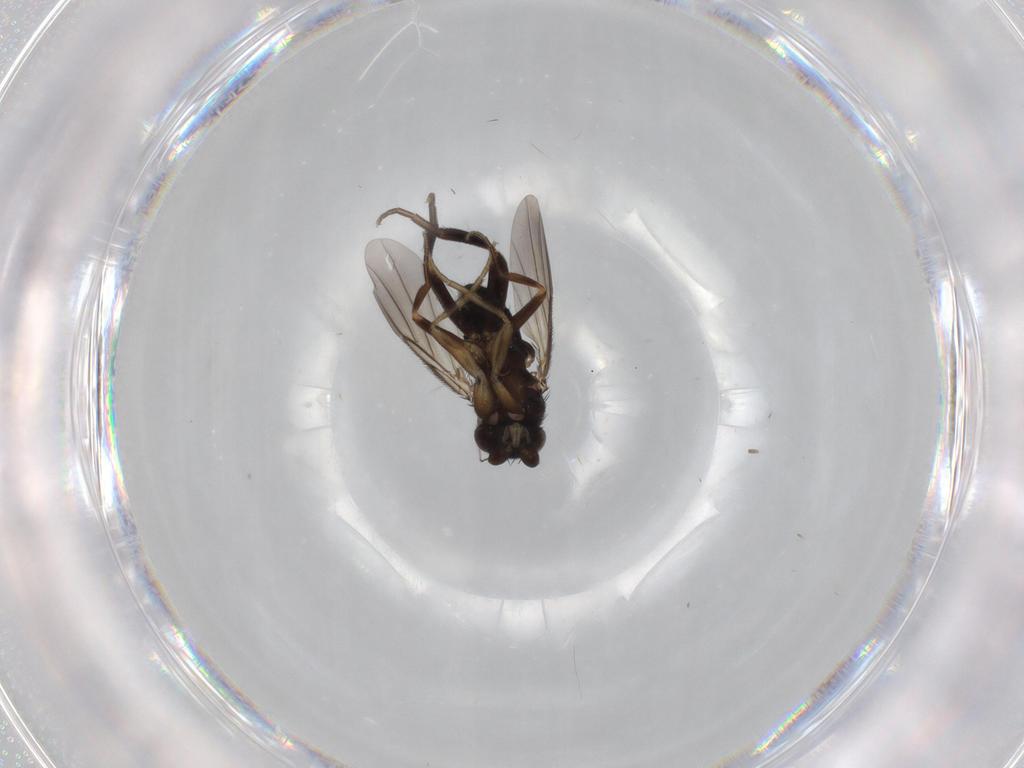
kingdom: Animalia
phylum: Arthropoda
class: Insecta
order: Diptera
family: Phoridae
